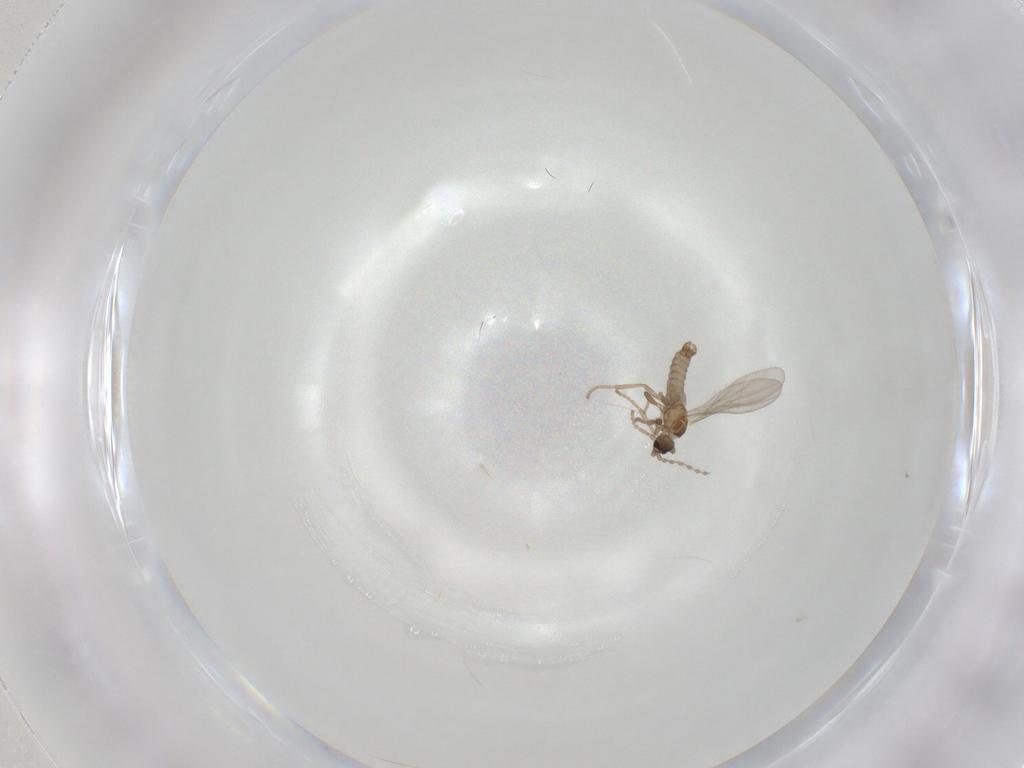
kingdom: Animalia
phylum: Arthropoda
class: Insecta
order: Diptera
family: Cecidomyiidae
